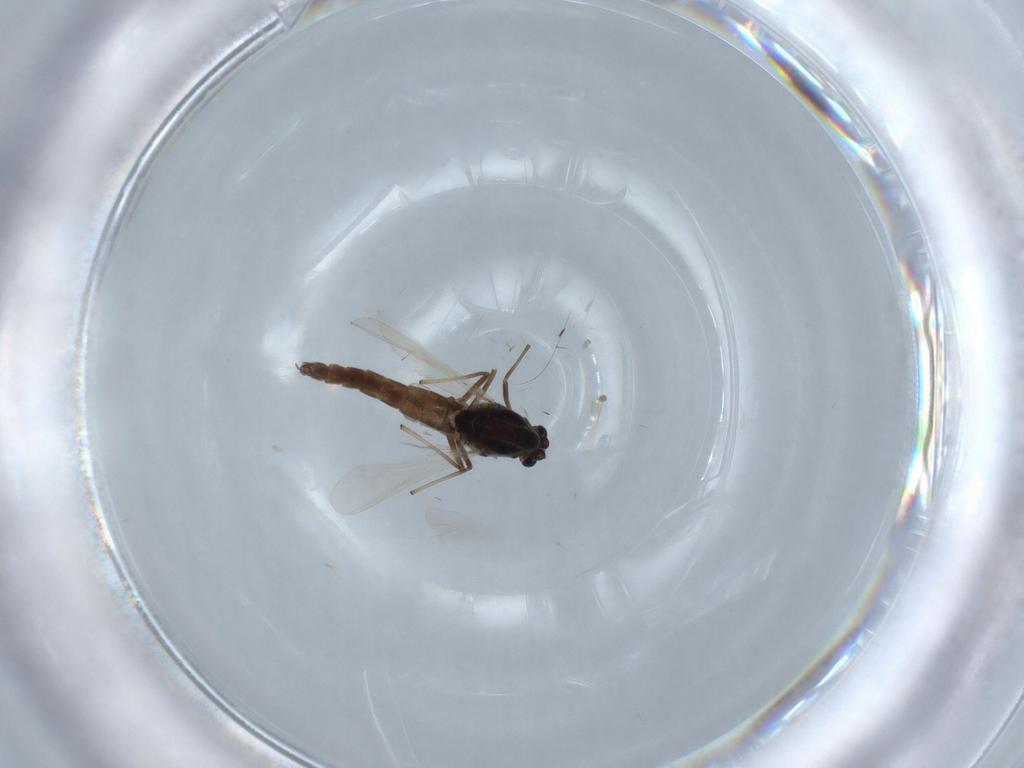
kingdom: Animalia
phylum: Arthropoda
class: Insecta
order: Diptera
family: Chironomidae
